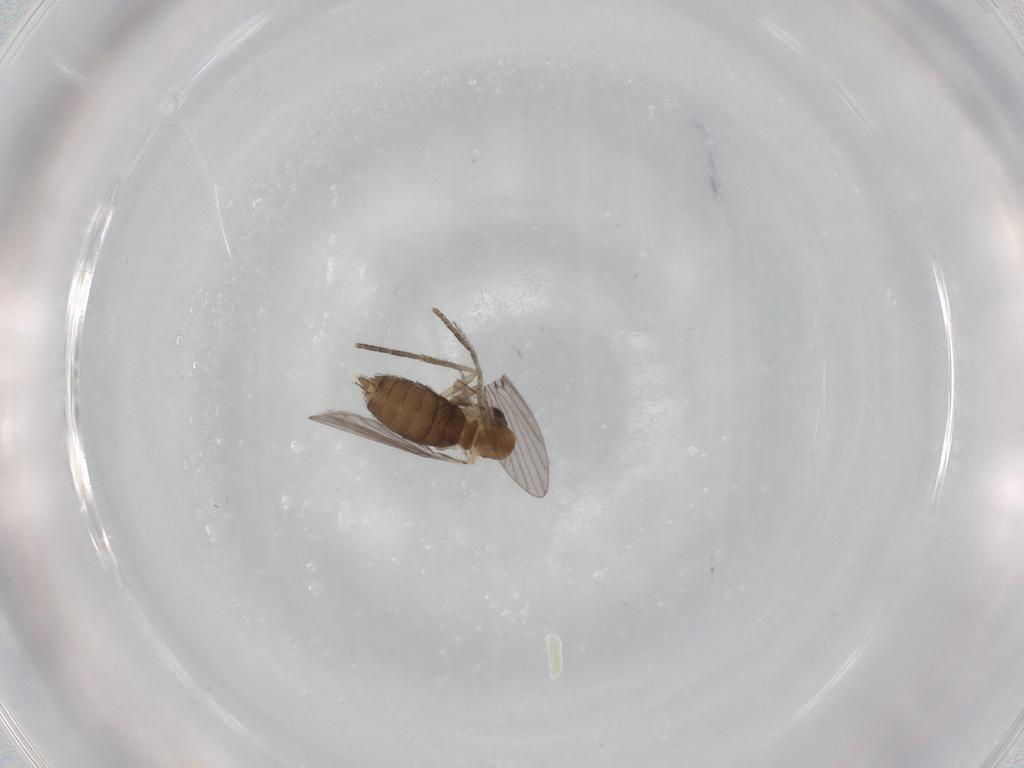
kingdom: Animalia
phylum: Arthropoda
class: Insecta
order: Diptera
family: Psychodidae
